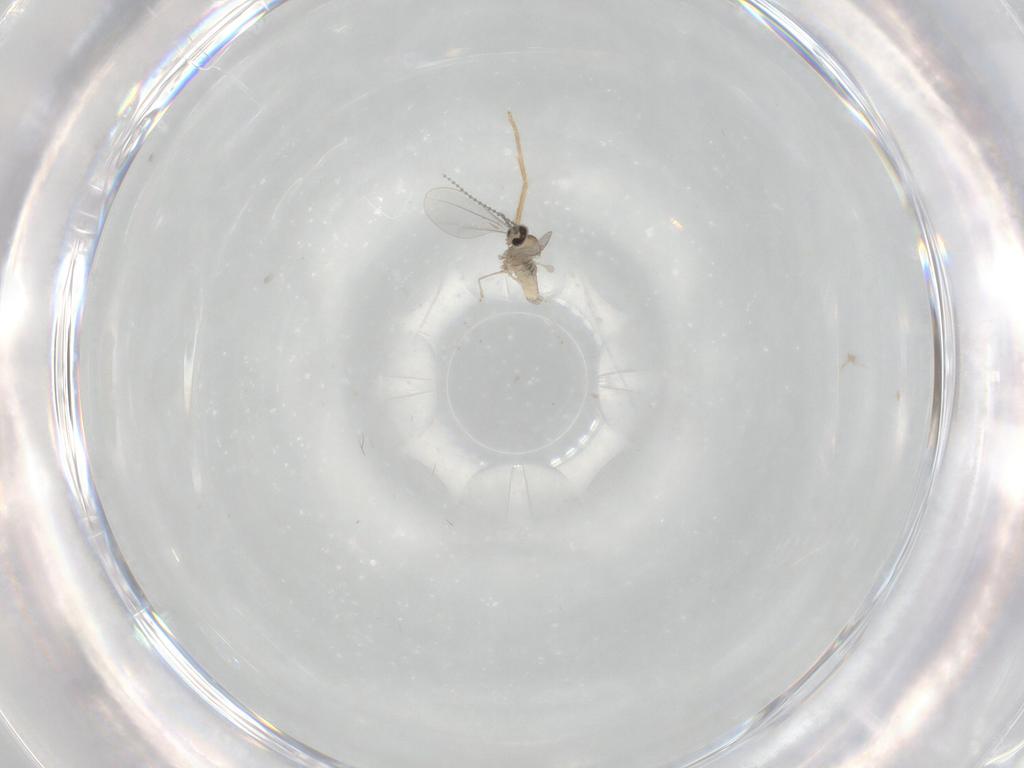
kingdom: Animalia
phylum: Arthropoda
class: Insecta
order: Diptera
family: Cecidomyiidae
